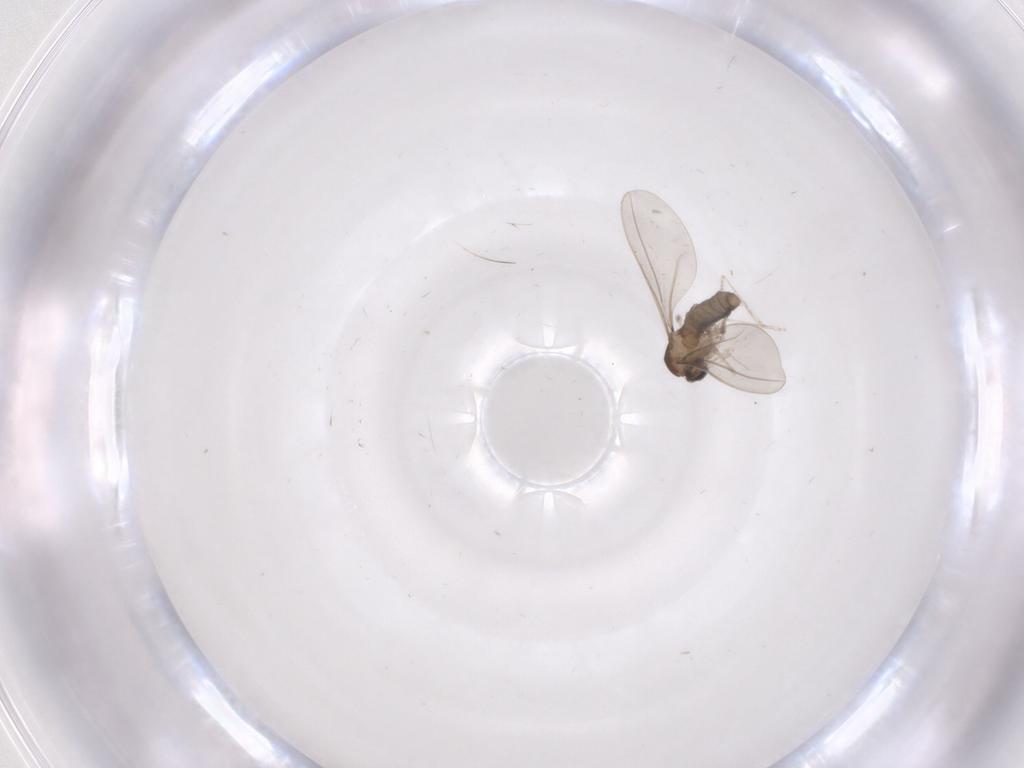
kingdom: Animalia
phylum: Arthropoda
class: Insecta
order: Diptera
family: Cecidomyiidae
